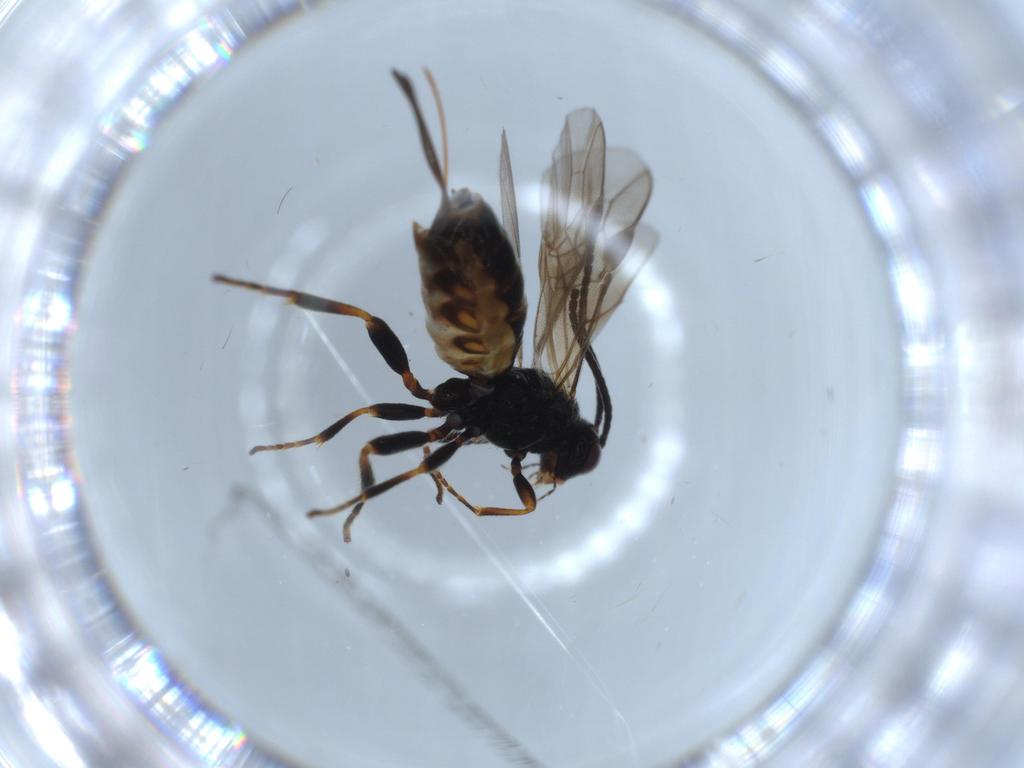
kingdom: Animalia
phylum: Arthropoda
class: Insecta
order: Hymenoptera
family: Braconidae
